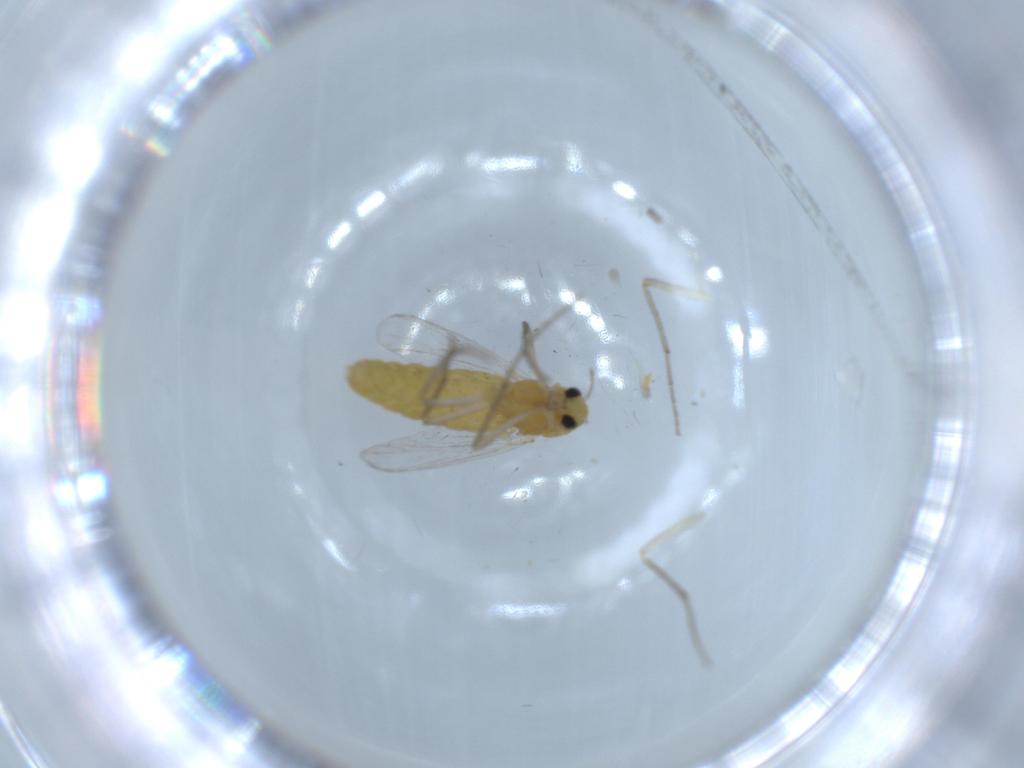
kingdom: Animalia
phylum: Arthropoda
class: Insecta
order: Diptera
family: Chironomidae
